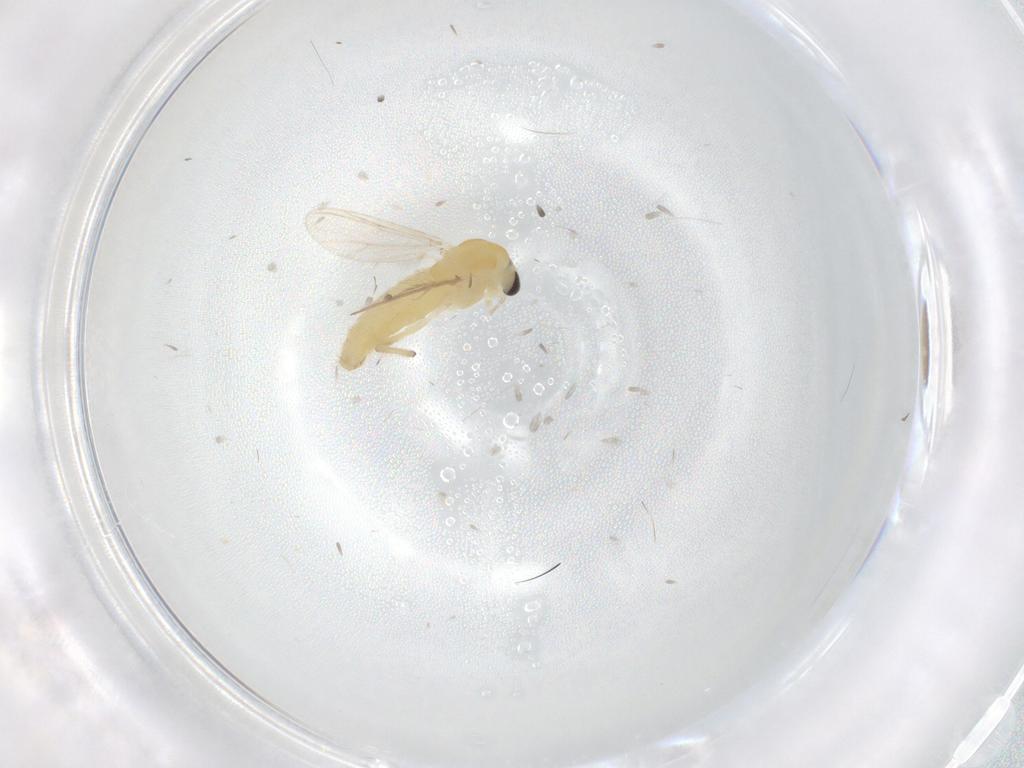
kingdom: Animalia
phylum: Arthropoda
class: Insecta
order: Diptera
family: Chironomidae
